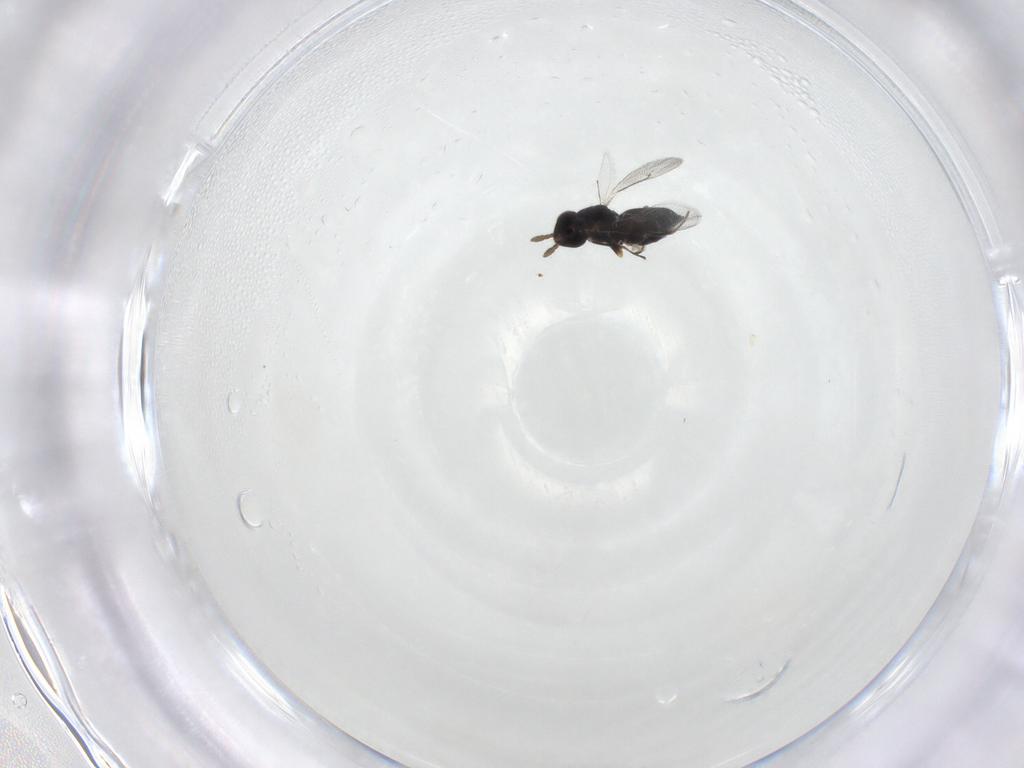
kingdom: Animalia
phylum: Arthropoda
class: Insecta
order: Hymenoptera
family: Eulophidae
